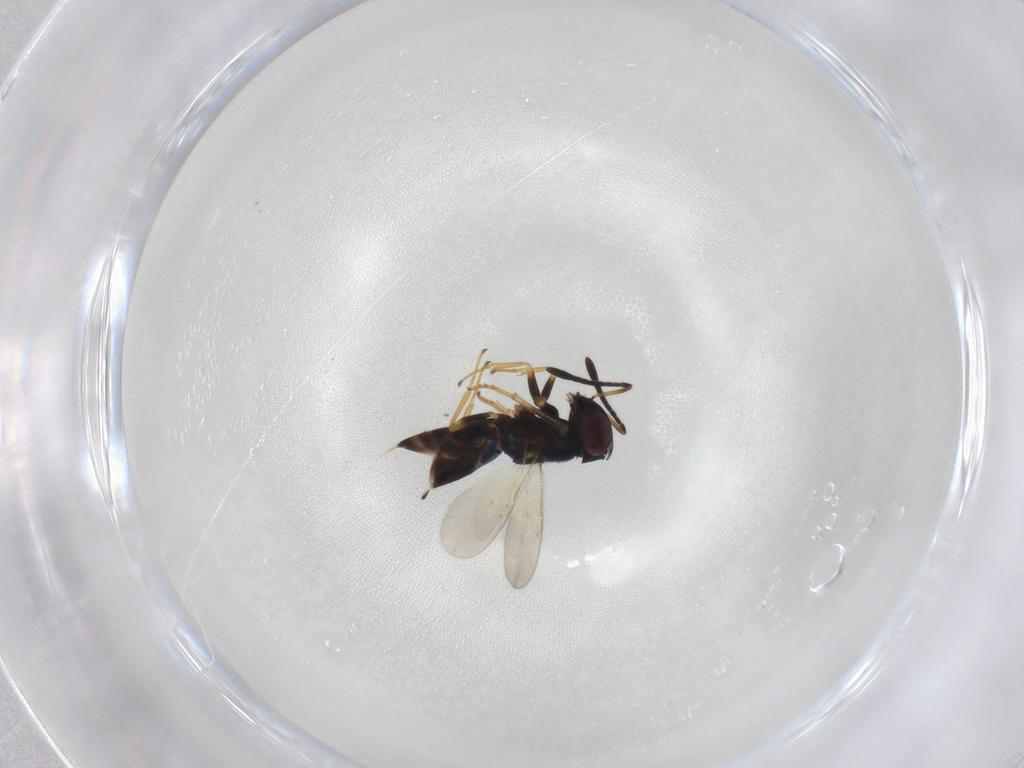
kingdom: Animalia
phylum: Arthropoda
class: Insecta
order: Hymenoptera
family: Encyrtidae
